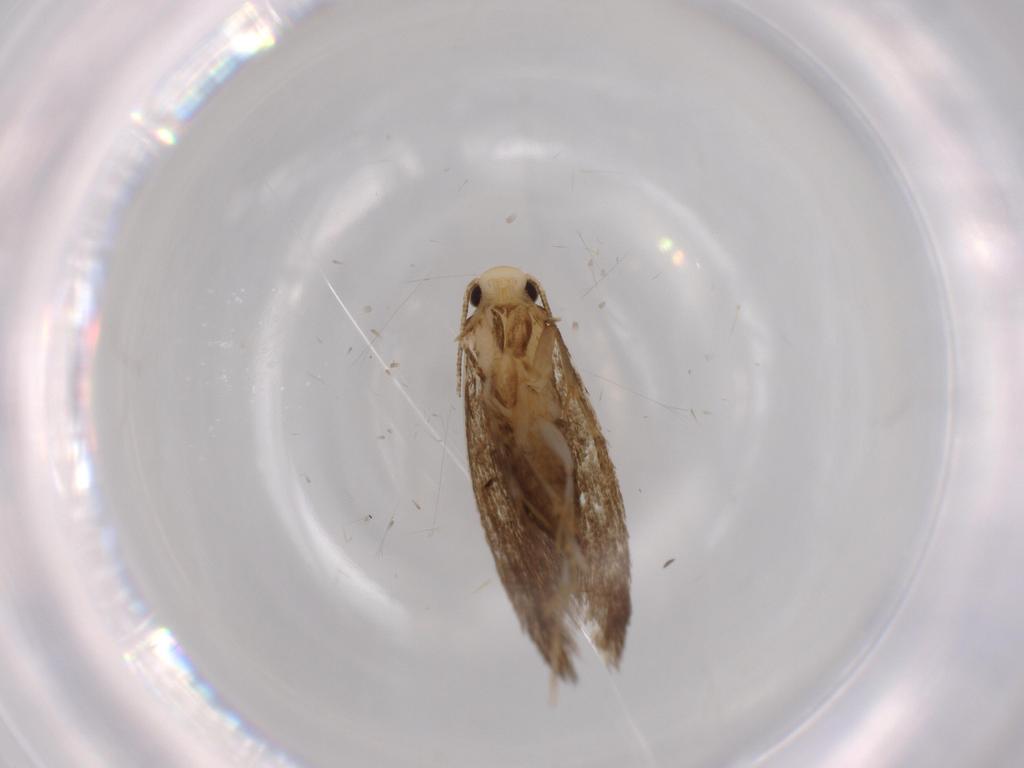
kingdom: Animalia
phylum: Arthropoda
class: Insecta
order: Lepidoptera
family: Tineidae
